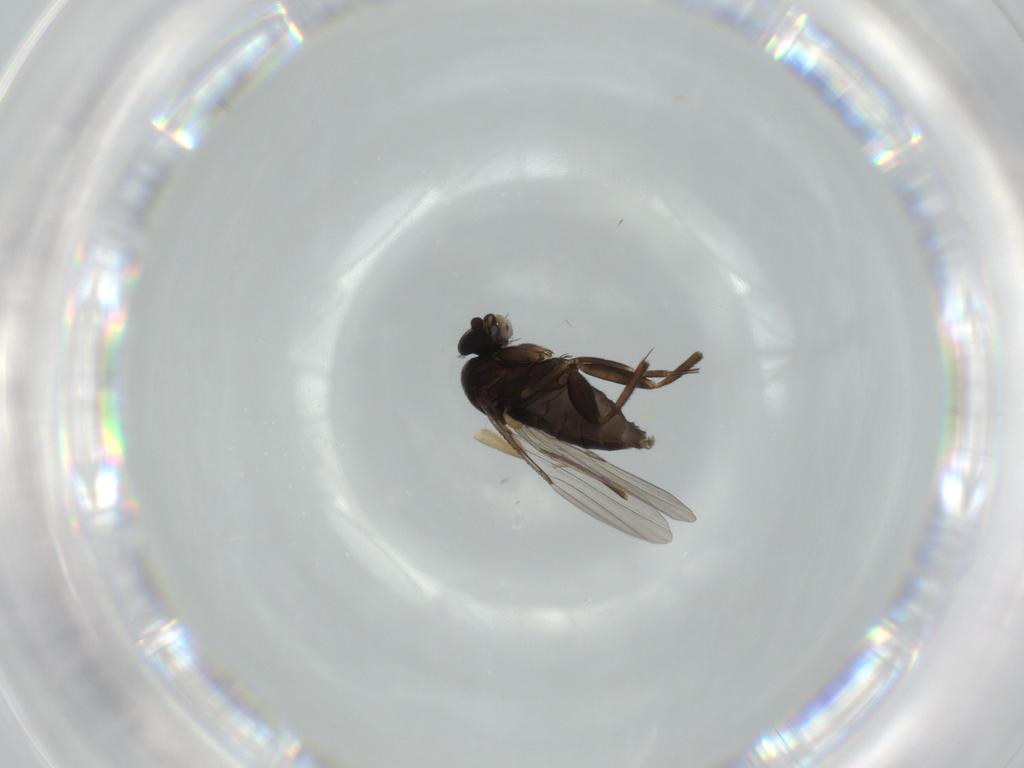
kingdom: Animalia
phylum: Arthropoda
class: Insecta
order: Diptera
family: Phoridae
